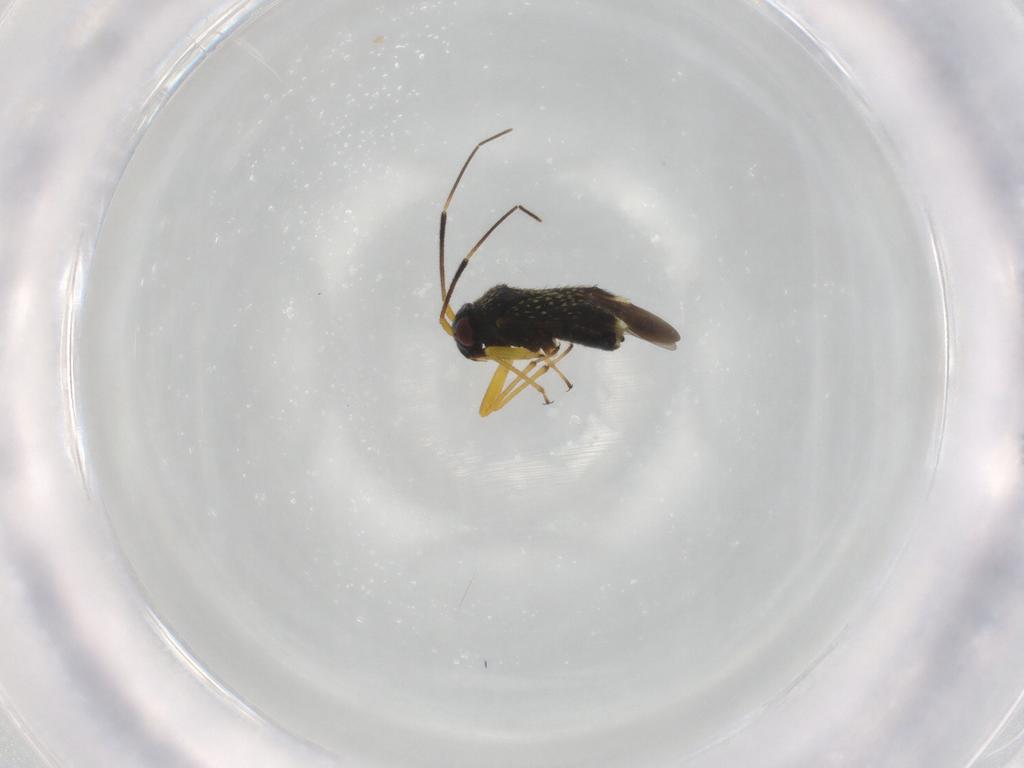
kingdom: Animalia
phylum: Arthropoda
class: Insecta
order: Hemiptera
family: Miridae
